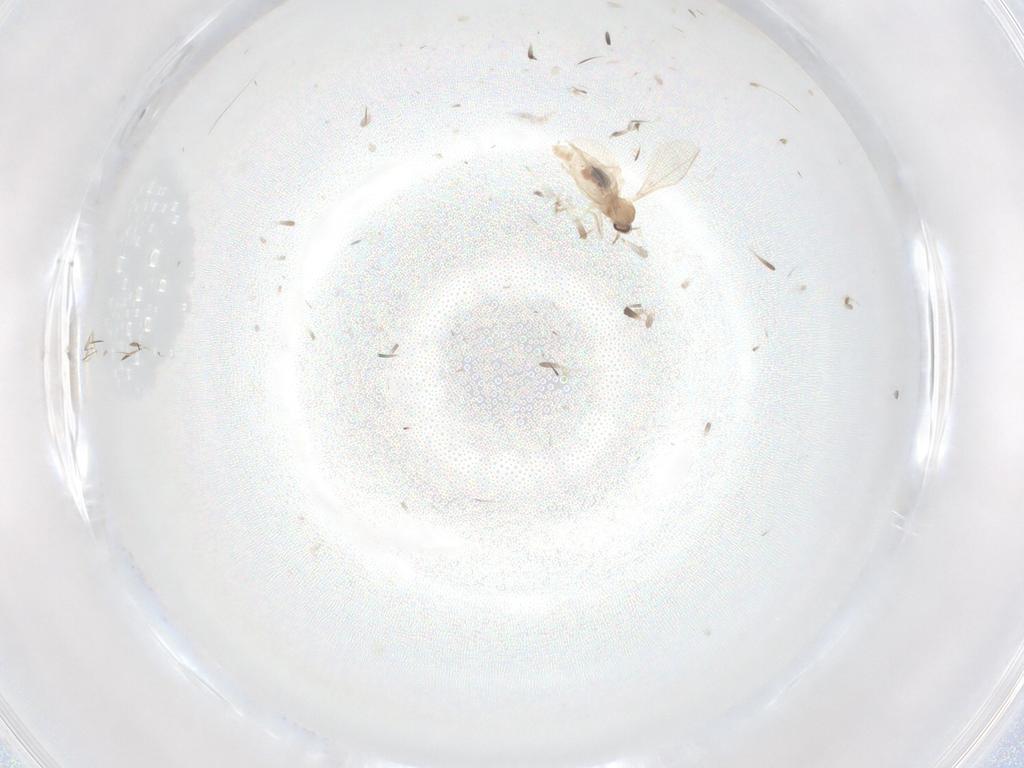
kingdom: Animalia
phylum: Arthropoda
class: Insecta
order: Diptera
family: Cecidomyiidae
